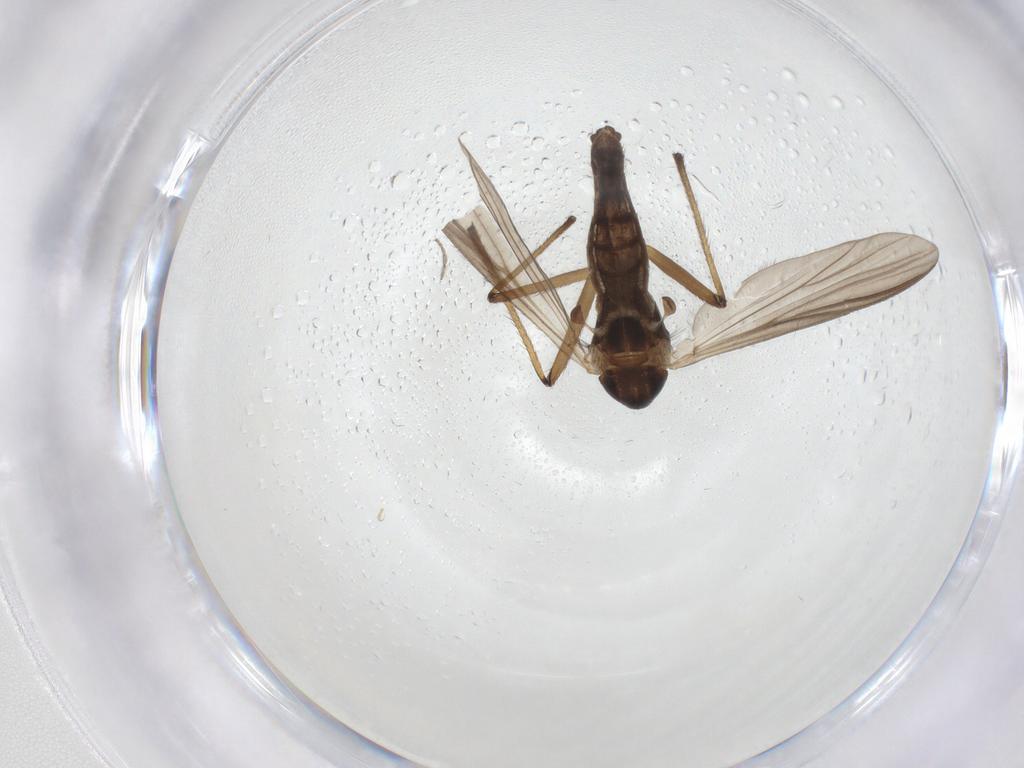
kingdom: Animalia
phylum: Arthropoda
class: Insecta
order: Diptera
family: Chironomidae
